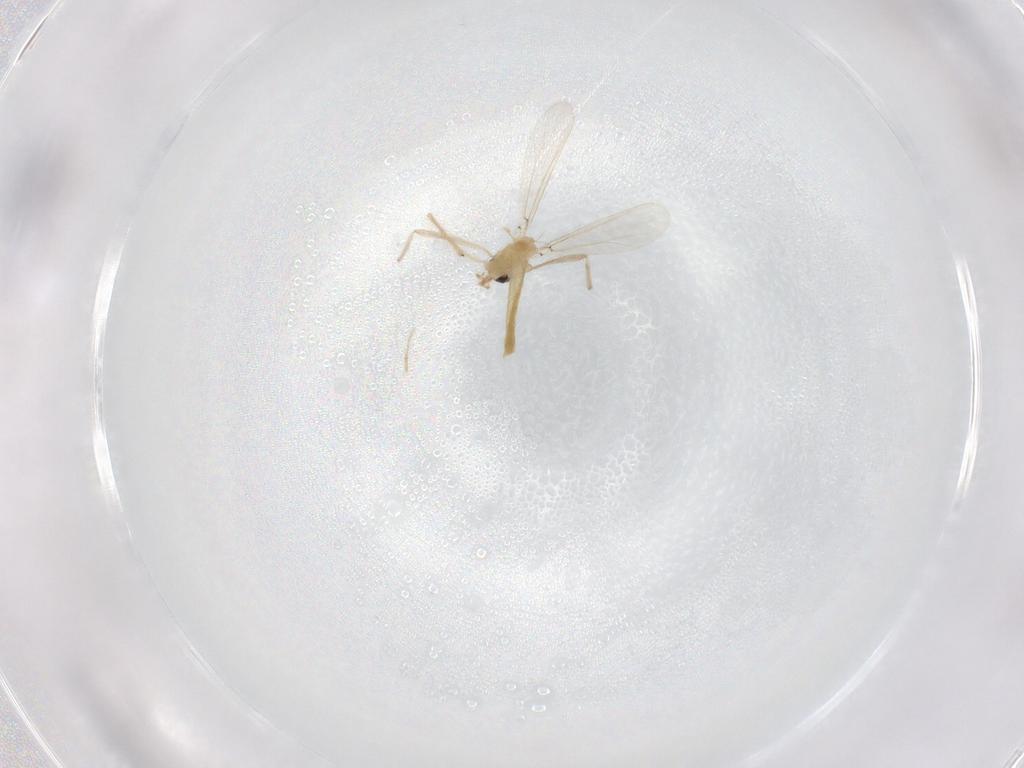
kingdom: Animalia
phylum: Arthropoda
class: Insecta
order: Diptera
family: Chironomidae
